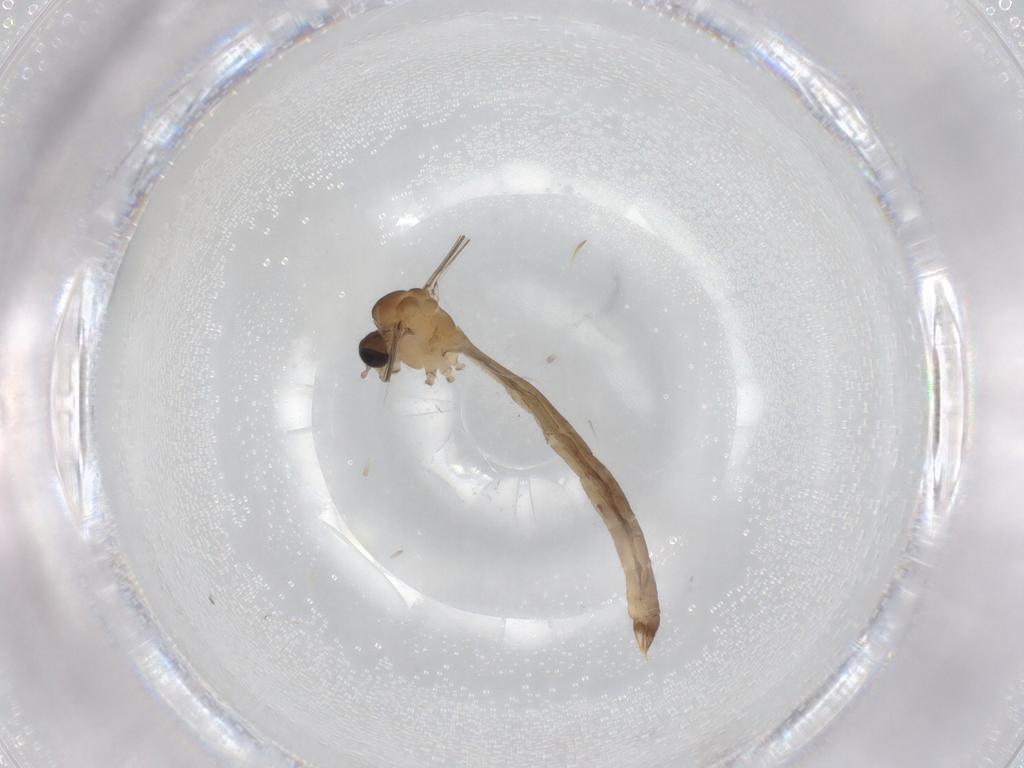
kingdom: Animalia
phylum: Arthropoda
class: Insecta
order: Diptera
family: Limoniidae
